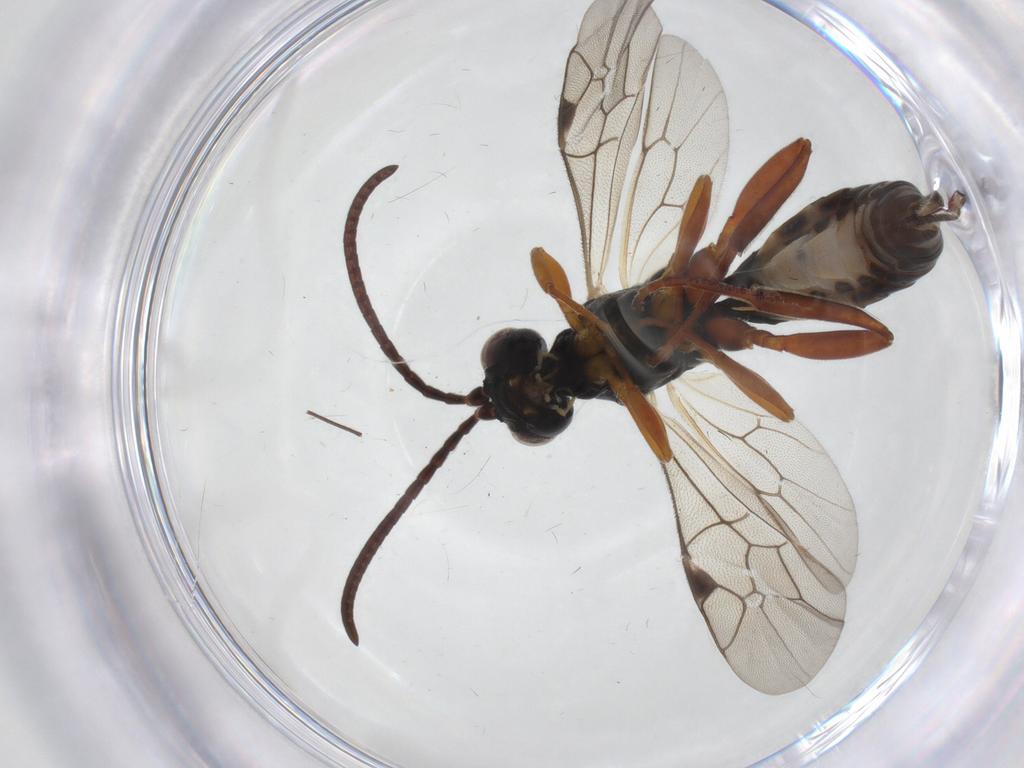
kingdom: Animalia
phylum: Arthropoda
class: Insecta
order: Hymenoptera
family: Ichneumonidae
